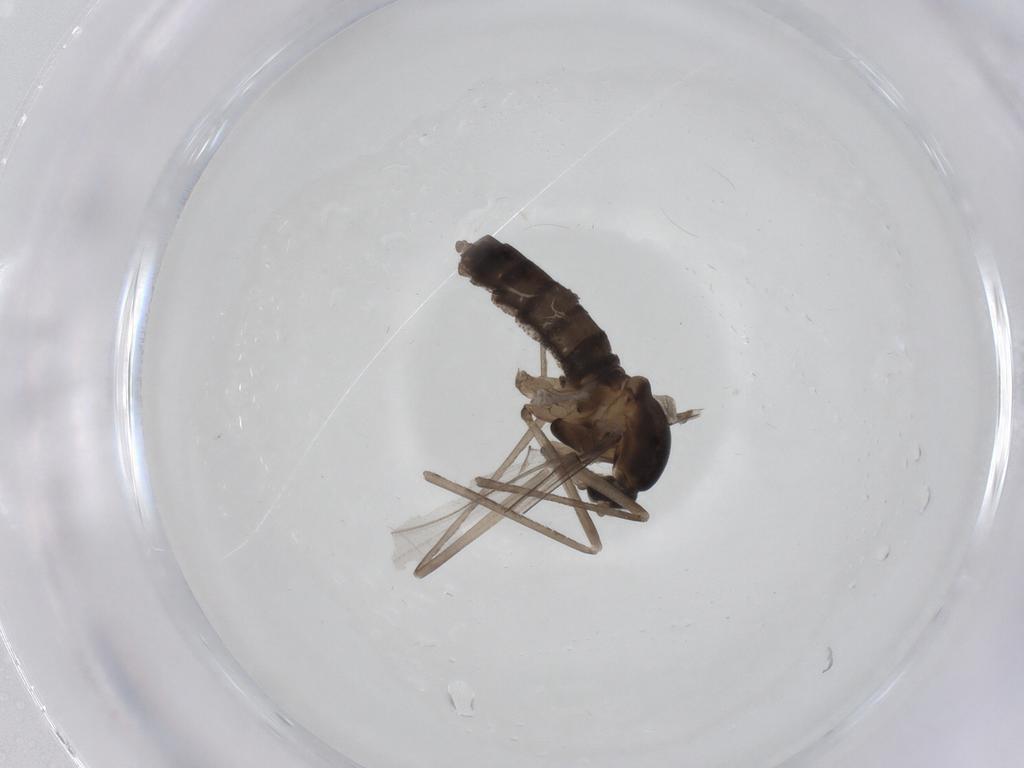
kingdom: Animalia
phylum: Arthropoda
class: Insecta
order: Diptera
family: Cecidomyiidae
